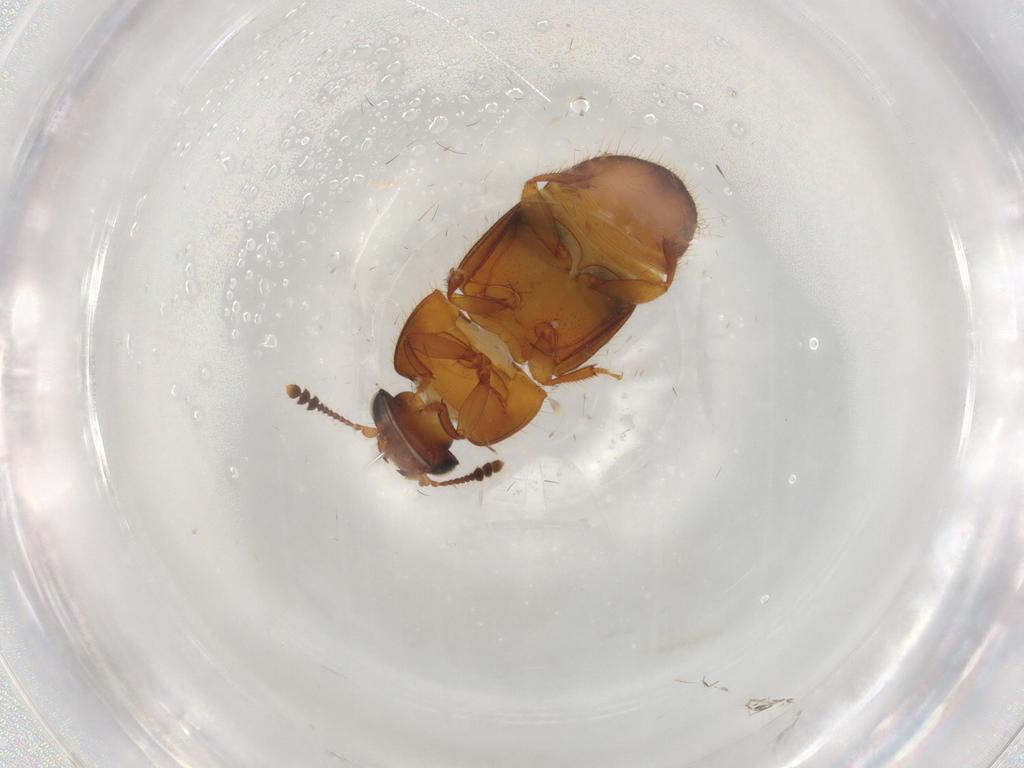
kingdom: Animalia
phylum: Arthropoda
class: Insecta
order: Coleoptera
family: Nitidulidae
